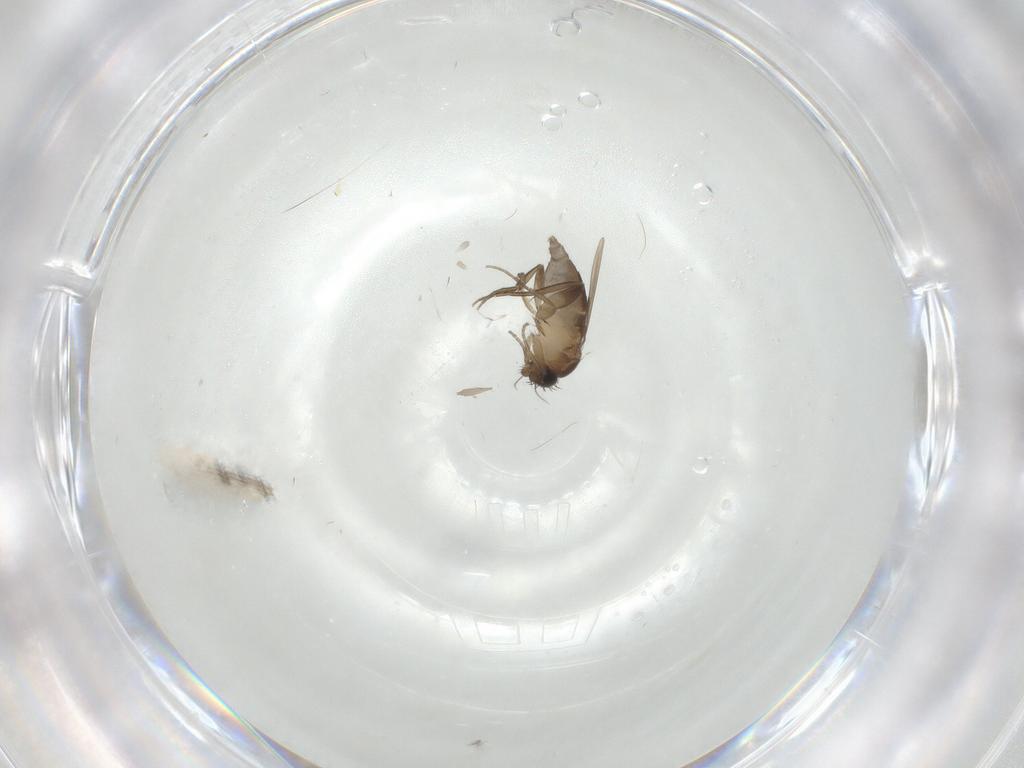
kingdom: Animalia
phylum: Arthropoda
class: Insecta
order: Diptera
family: Phoridae
